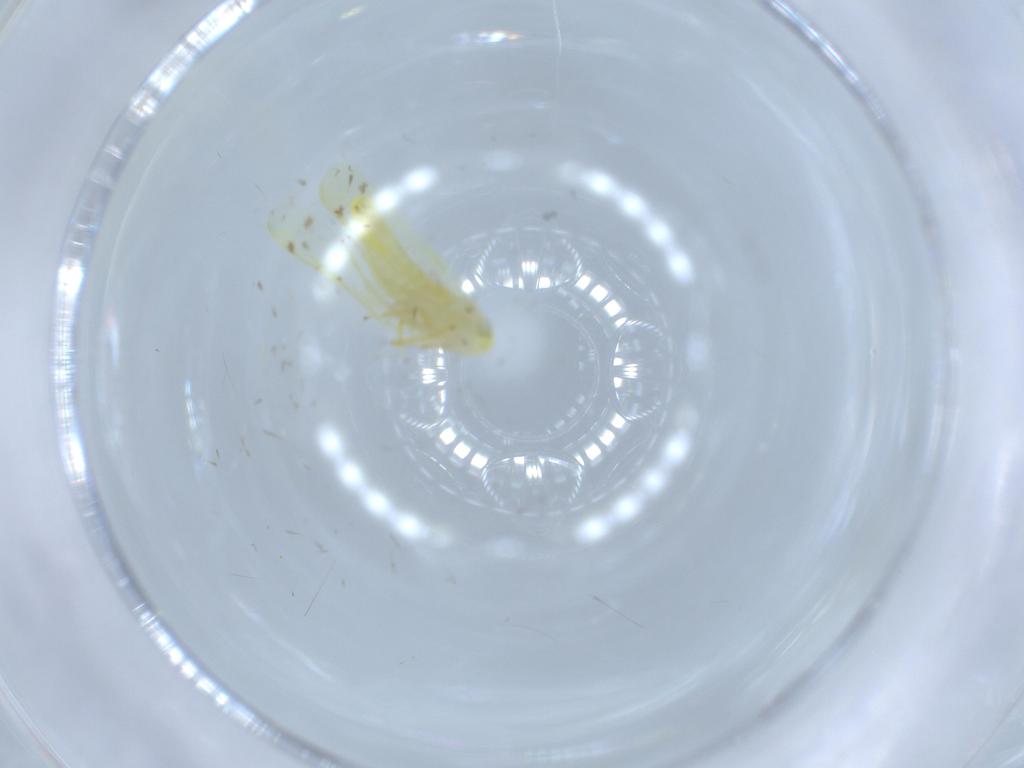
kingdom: Animalia
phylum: Arthropoda
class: Insecta
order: Hemiptera
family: Cicadellidae
